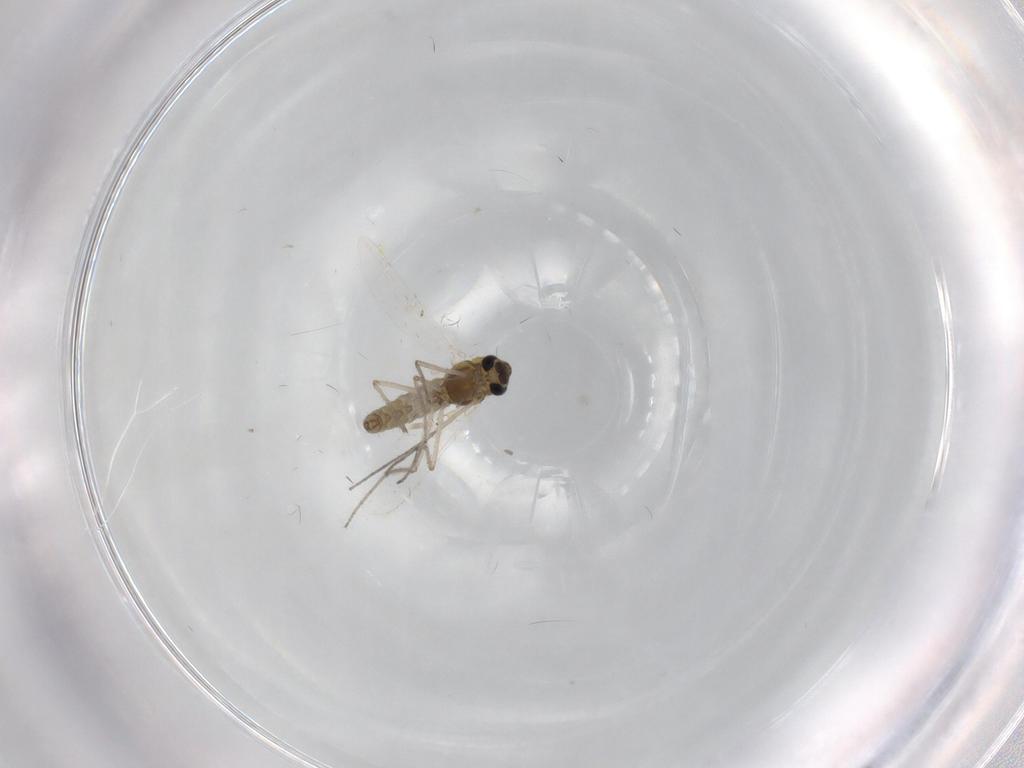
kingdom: Animalia
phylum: Arthropoda
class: Insecta
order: Diptera
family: Chironomidae
